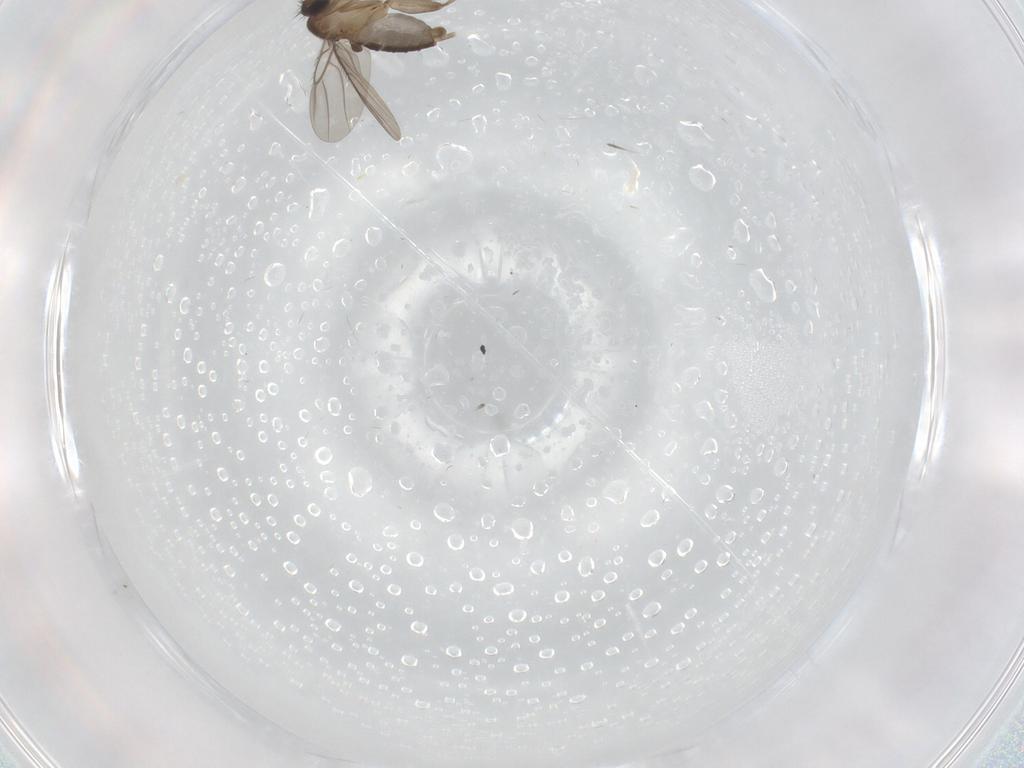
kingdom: Animalia
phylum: Arthropoda
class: Insecta
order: Diptera
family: Phoridae
